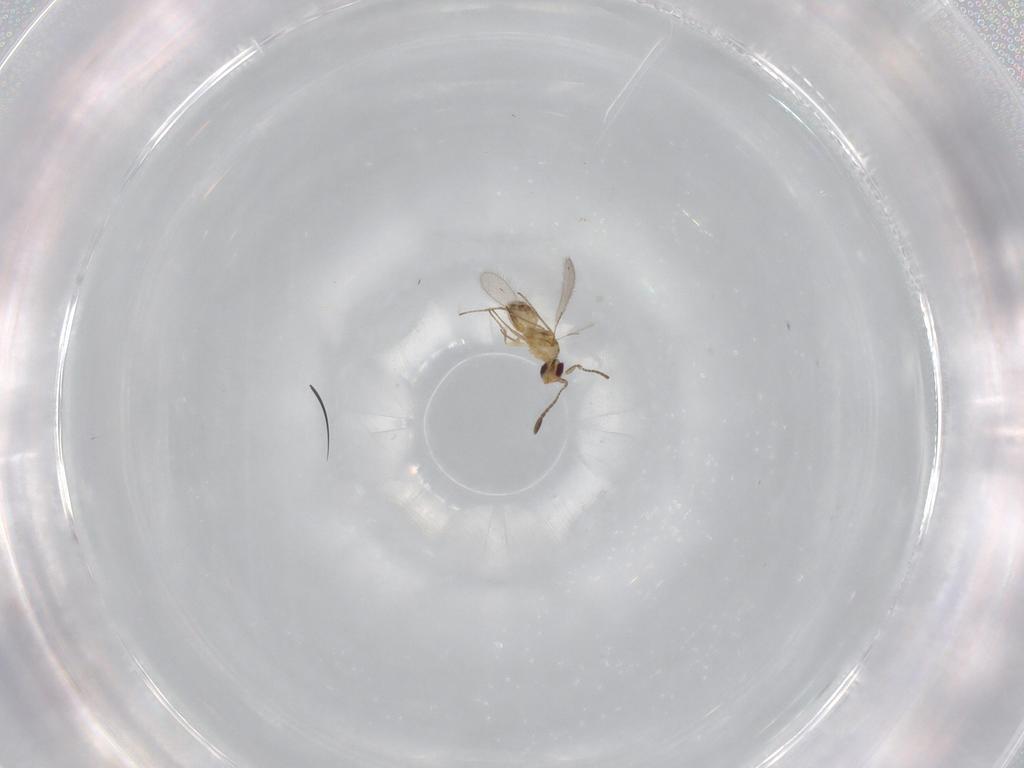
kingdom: Animalia
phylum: Arthropoda
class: Insecta
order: Hymenoptera
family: Mymaridae
